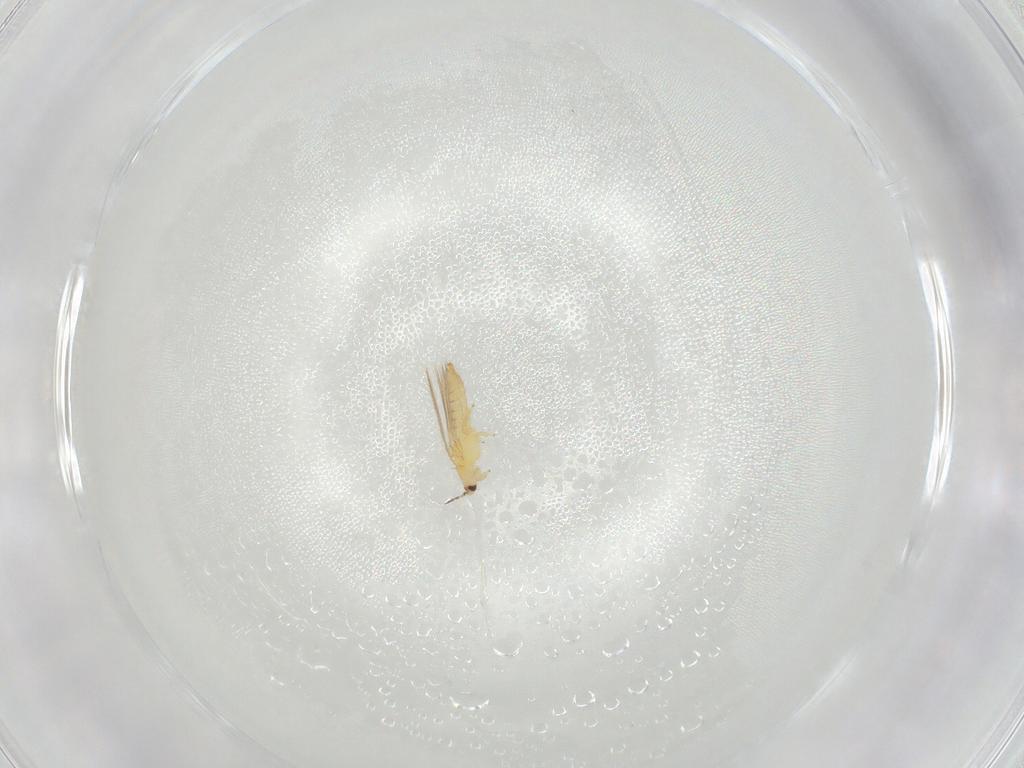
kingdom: Animalia
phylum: Arthropoda
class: Insecta
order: Thysanoptera
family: Thripidae
